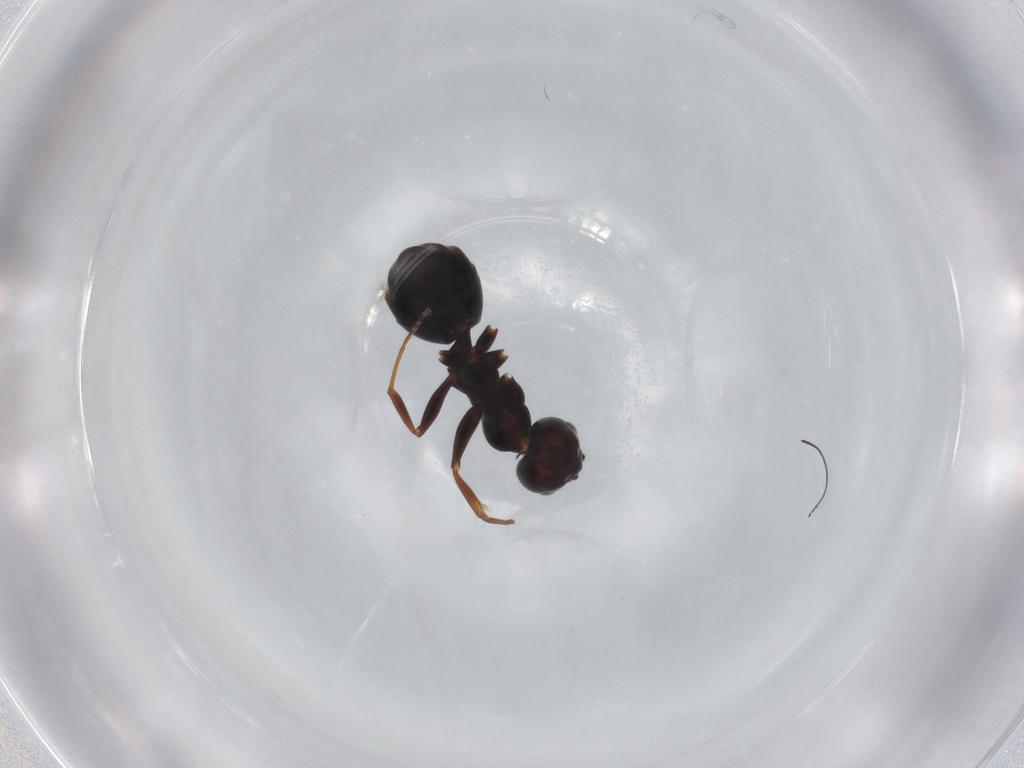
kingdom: Animalia
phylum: Arthropoda
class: Insecta
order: Hymenoptera
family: Formicidae
